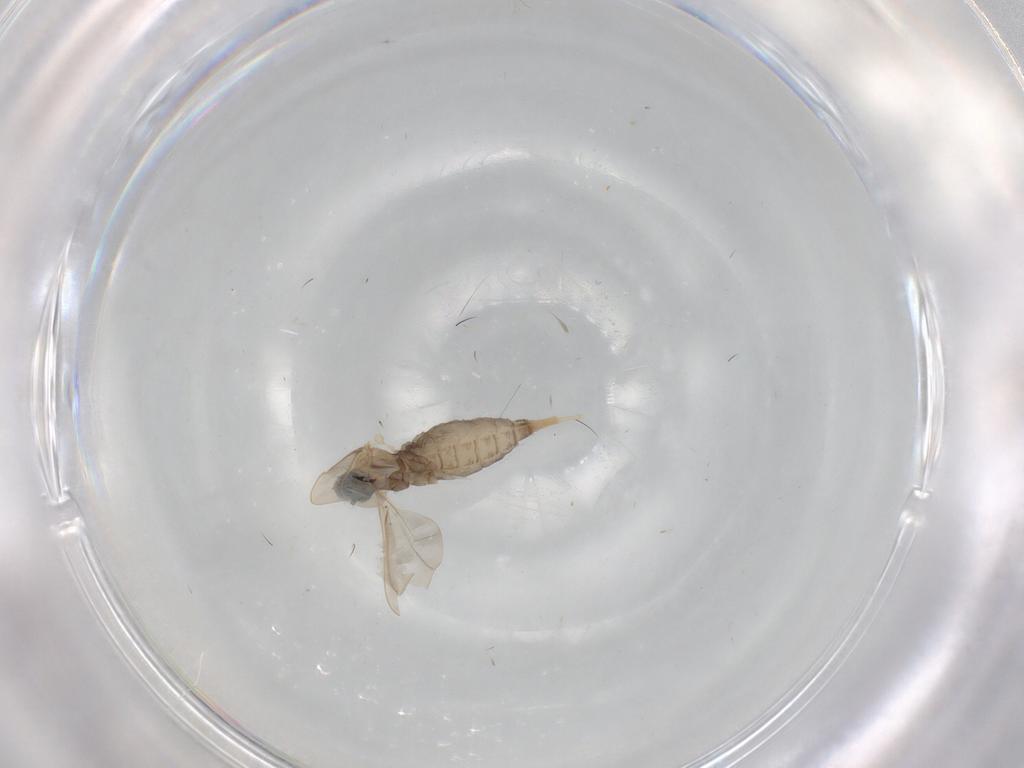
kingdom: Animalia
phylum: Arthropoda
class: Insecta
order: Diptera
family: Cecidomyiidae
